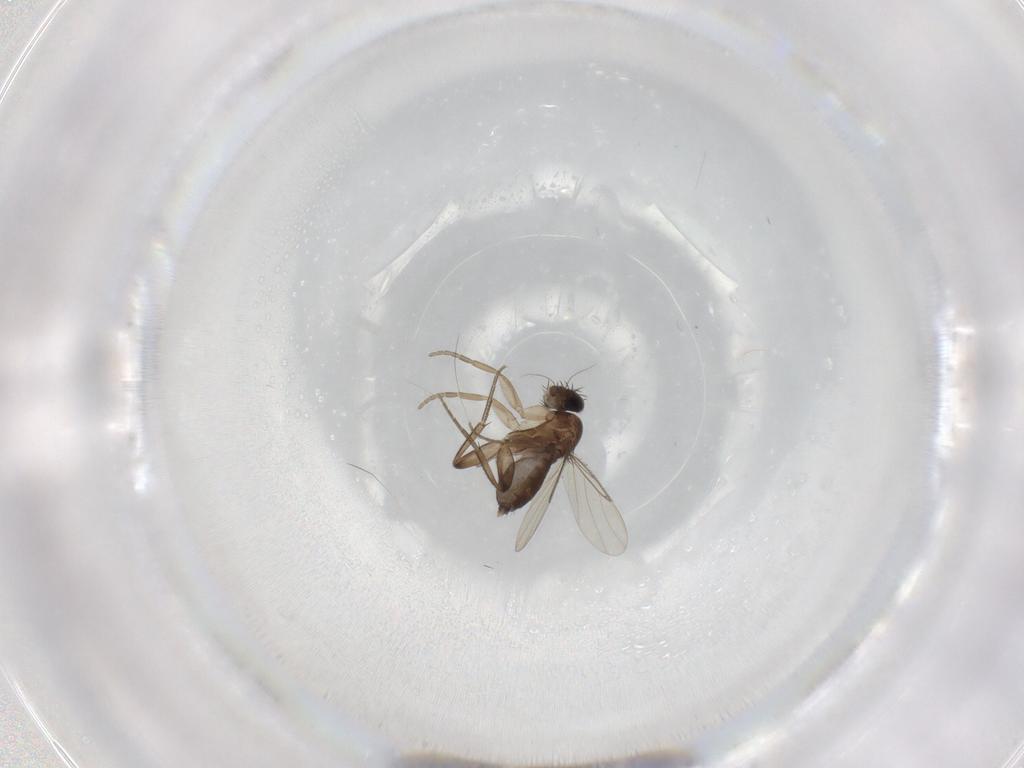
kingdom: Animalia
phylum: Arthropoda
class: Insecta
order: Diptera
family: Phoridae
